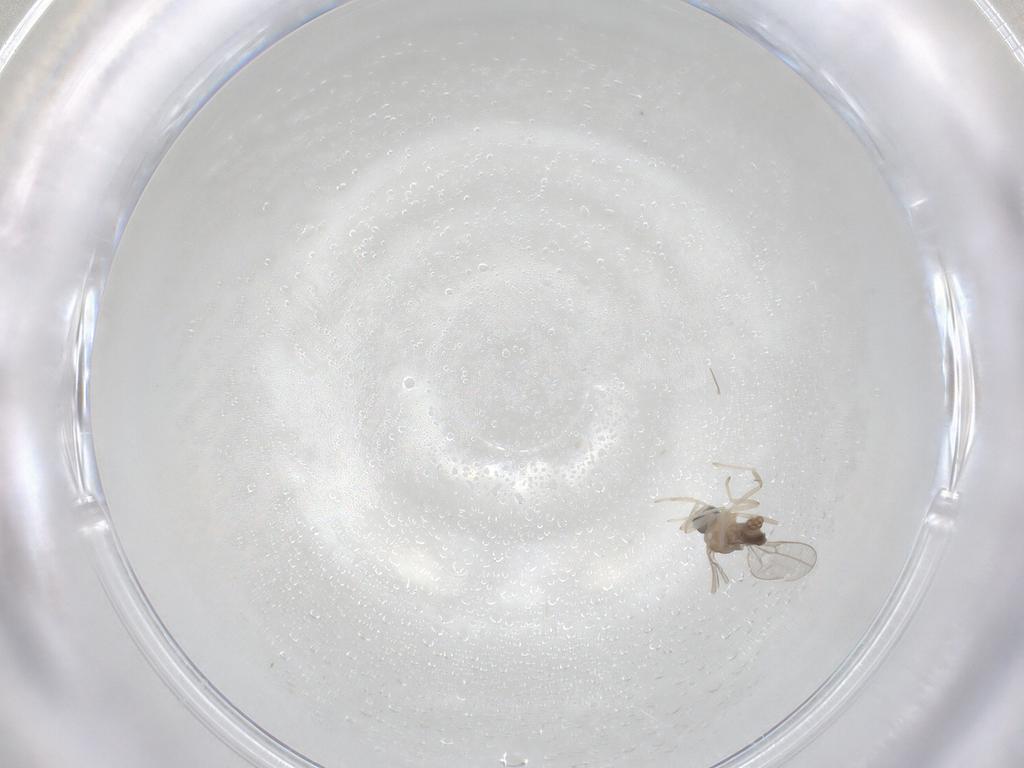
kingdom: Animalia
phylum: Arthropoda
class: Insecta
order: Diptera
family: Cecidomyiidae
